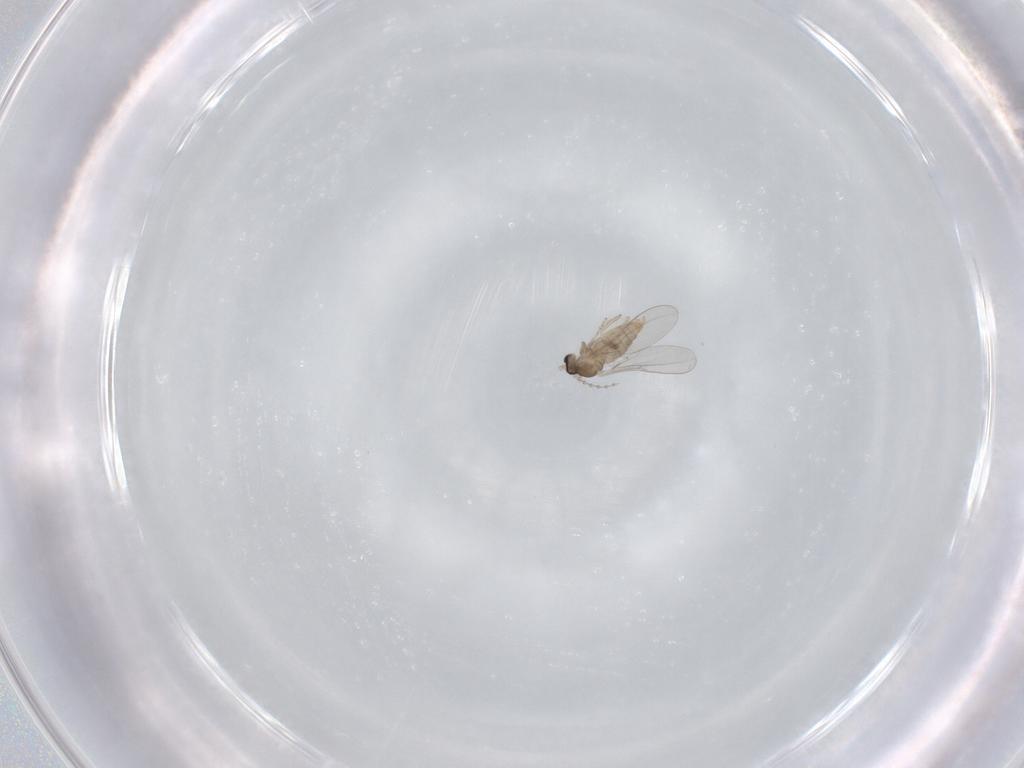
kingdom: Animalia
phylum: Arthropoda
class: Insecta
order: Diptera
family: Cecidomyiidae
